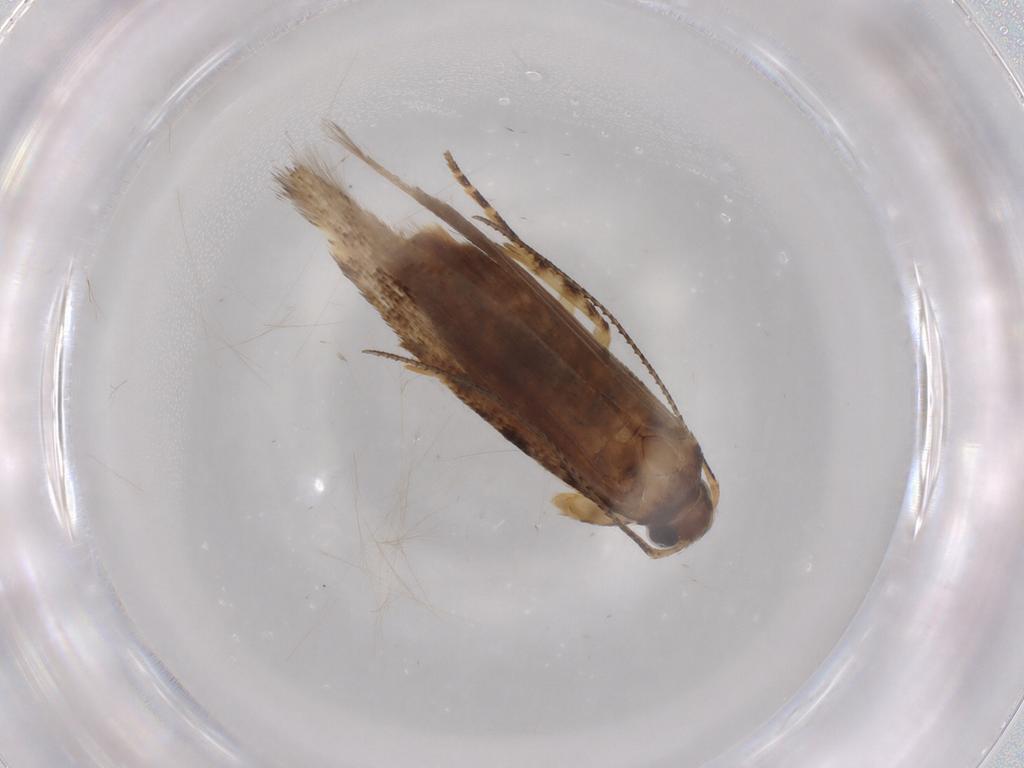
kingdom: Animalia
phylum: Arthropoda
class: Insecta
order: Lepidoptera
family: Gelechiidae
